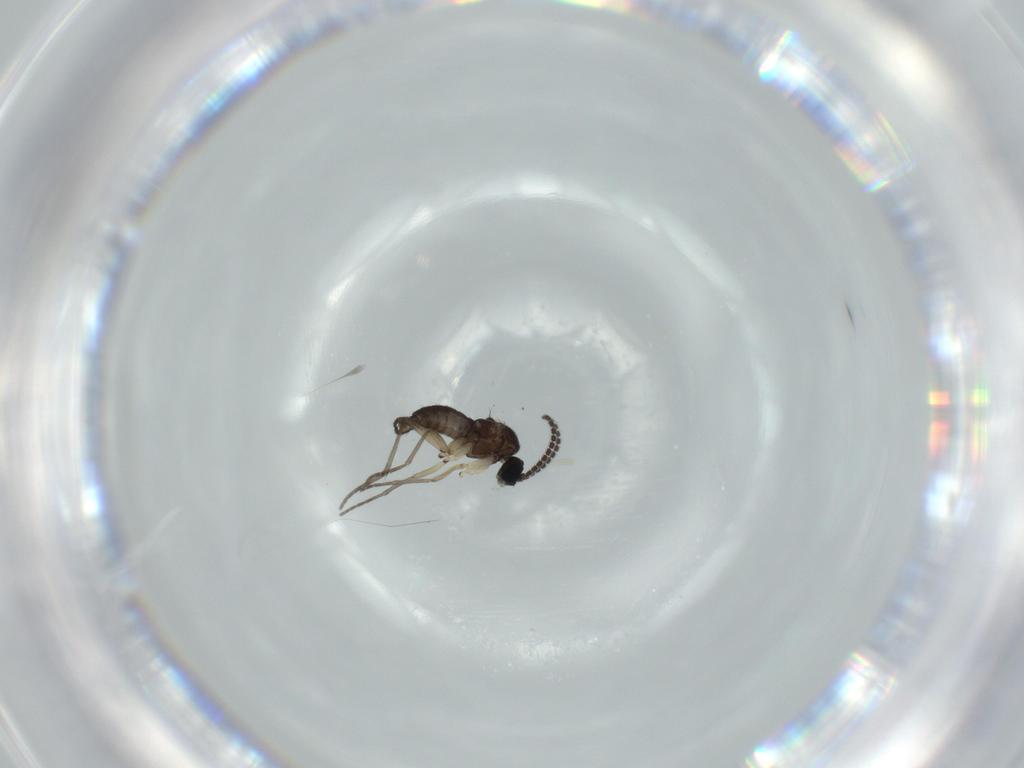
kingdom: Animalia
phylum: Arthropoda
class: Insecta
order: Diptera
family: Sciaridae
